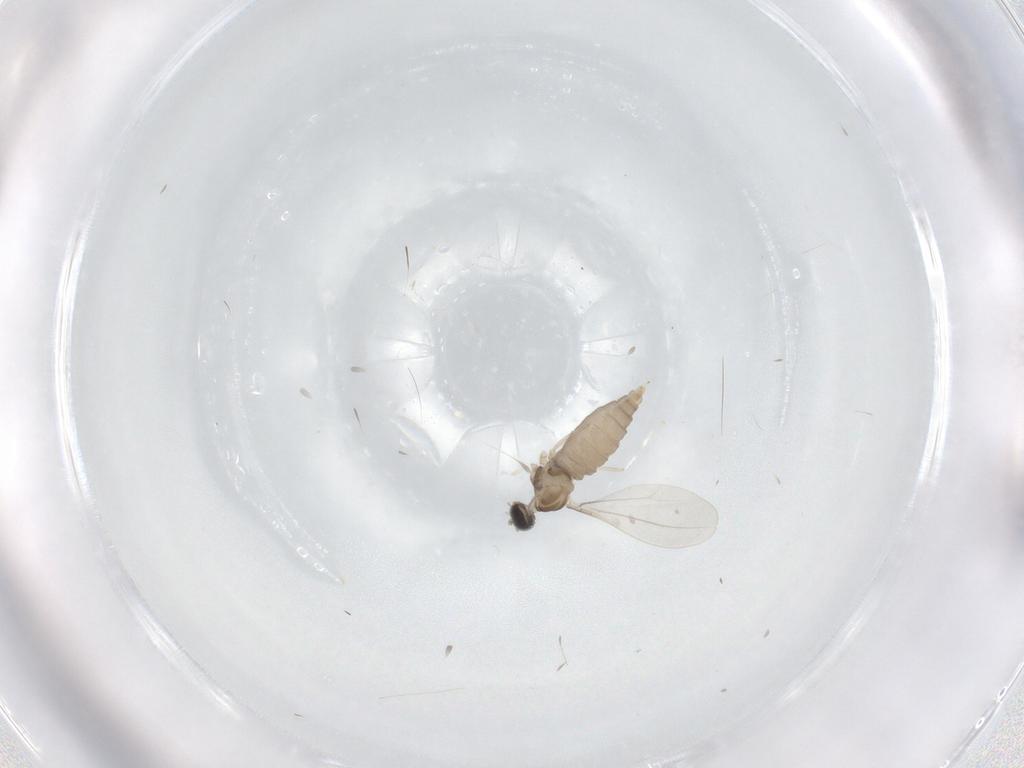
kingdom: Animalia
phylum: Arthropoda
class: Insecta
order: Diptera
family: Cecidomyiidae
